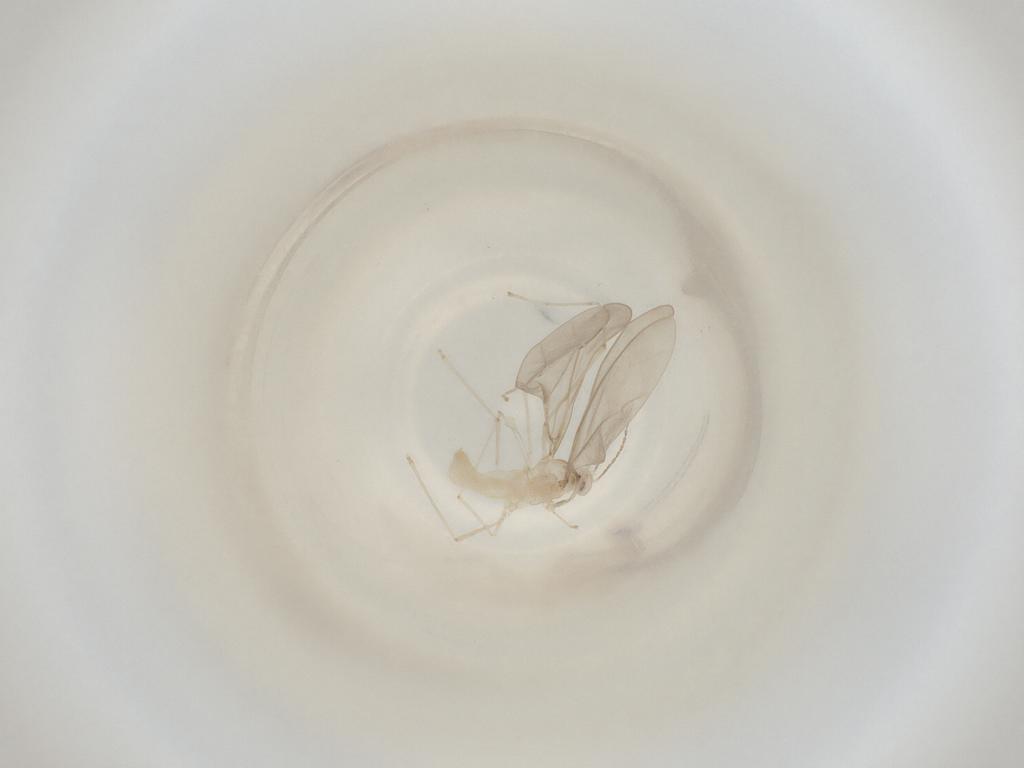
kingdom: Animalia
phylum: Arthropoda
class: Insecta
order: Diptera
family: Cecidomyiidae
